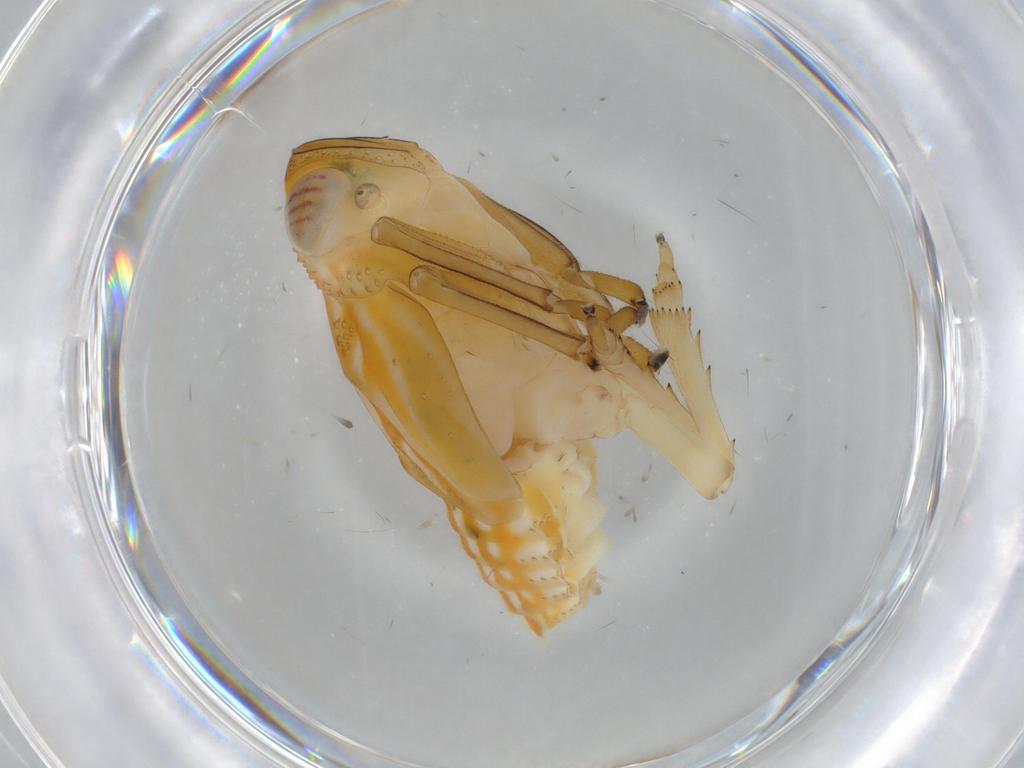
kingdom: Animalia
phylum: Arthropoda
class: Insecta
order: Hemiptera
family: Issidae
